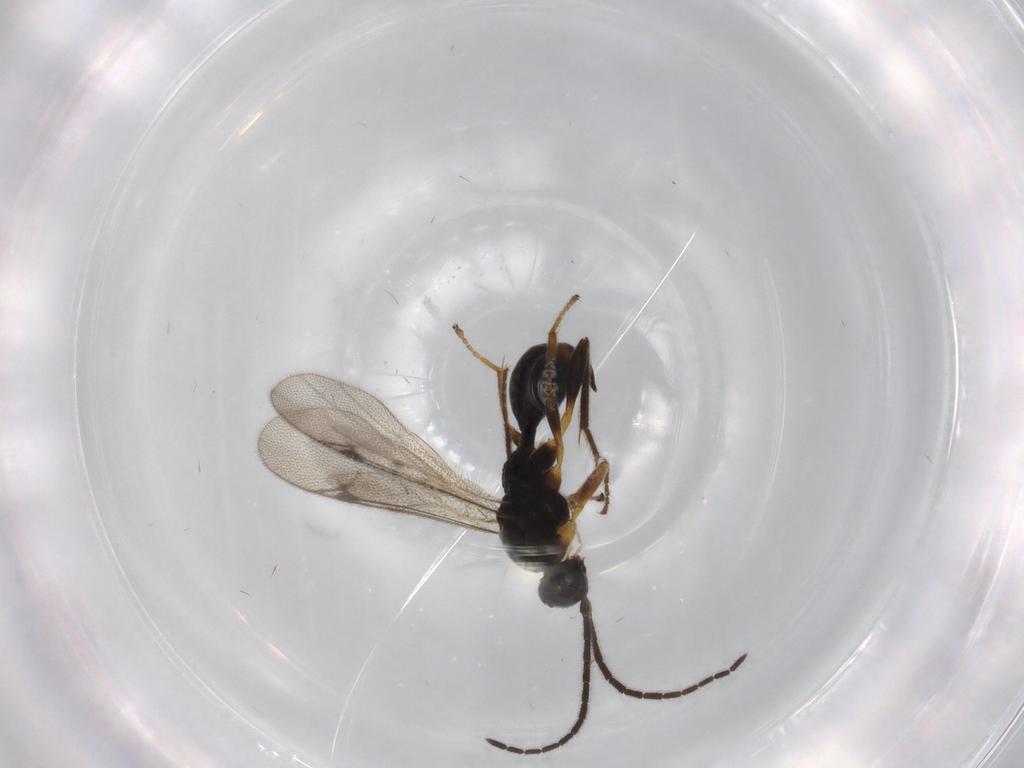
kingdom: Animalia
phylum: Arthropoda
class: Insecta
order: Hymenoptera
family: Proctotrupidae
